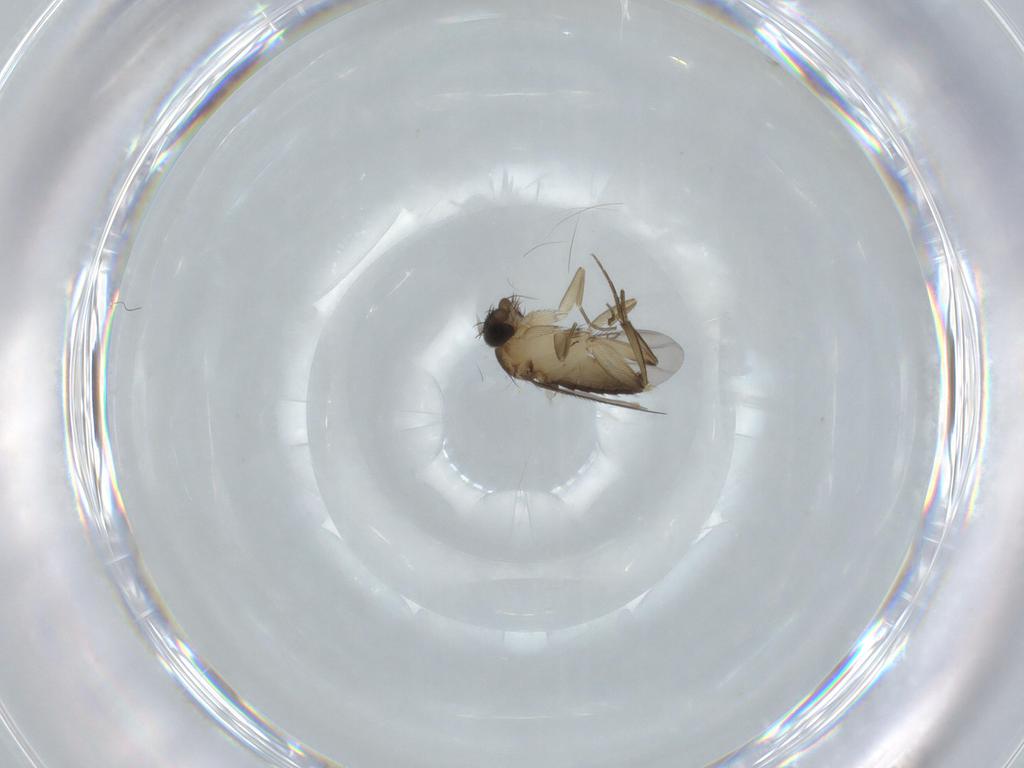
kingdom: Animalia
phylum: Arthropoda
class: Insecta
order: Diptera
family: Phoridae
